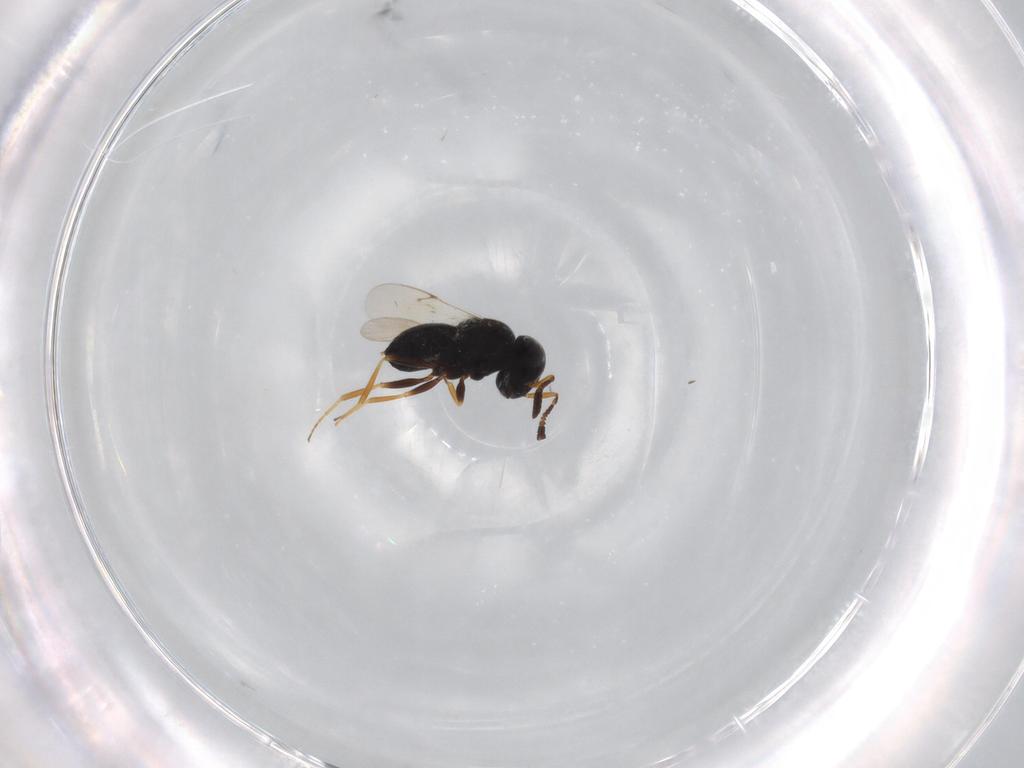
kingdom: Animalia
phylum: Arthropoda
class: Insecta
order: Hymenoptera
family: Sphecidae
